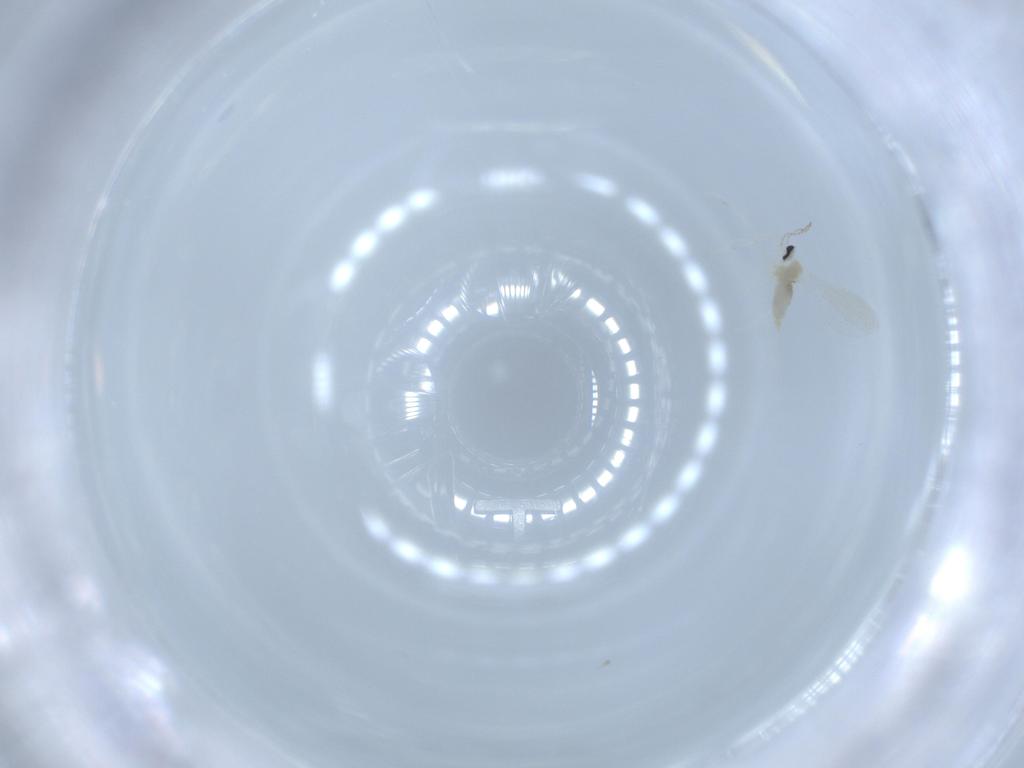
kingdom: Animalia
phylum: Arthropoda
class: Insecta
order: Diptera
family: Cecidomyiidae
